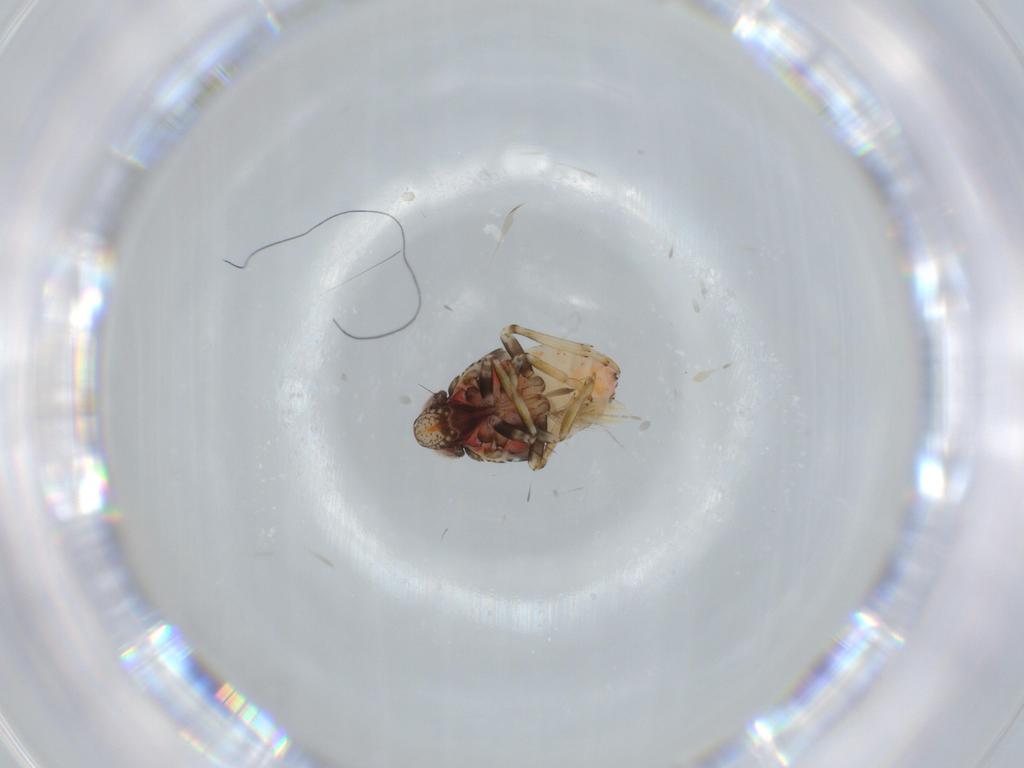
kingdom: Animalia
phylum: Arthropoda
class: Insecta
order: Hemiptera
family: Issidae
